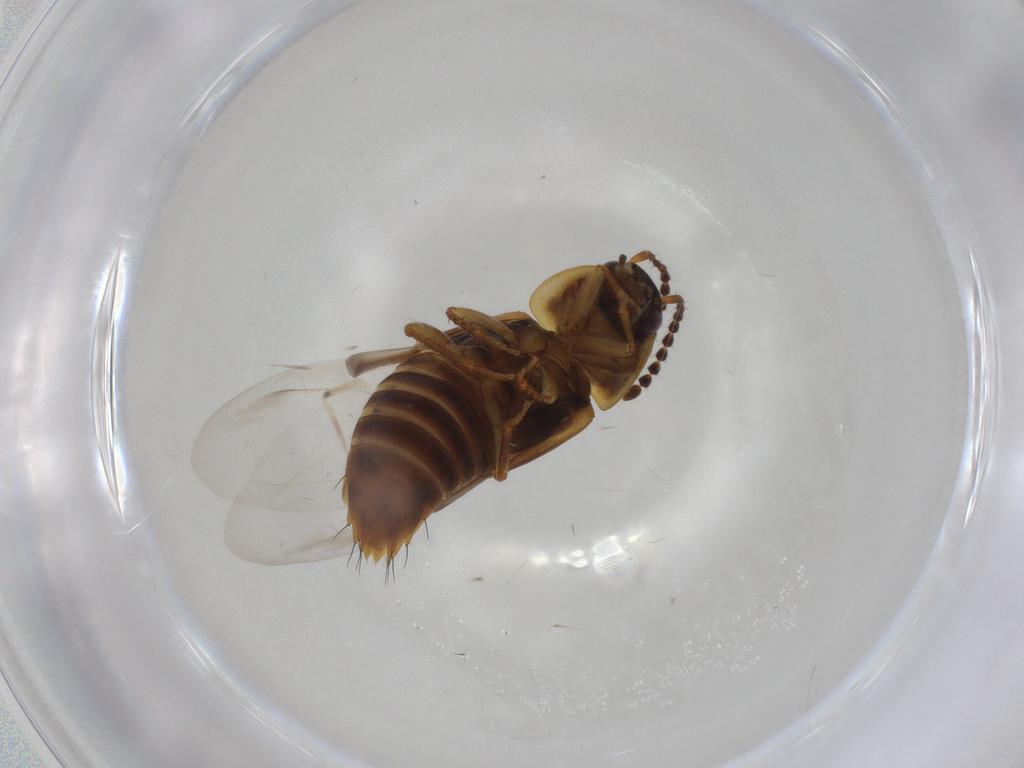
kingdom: Animalia
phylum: Arthropoda
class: Insecta
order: Coleoptera
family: Staphylinidae
